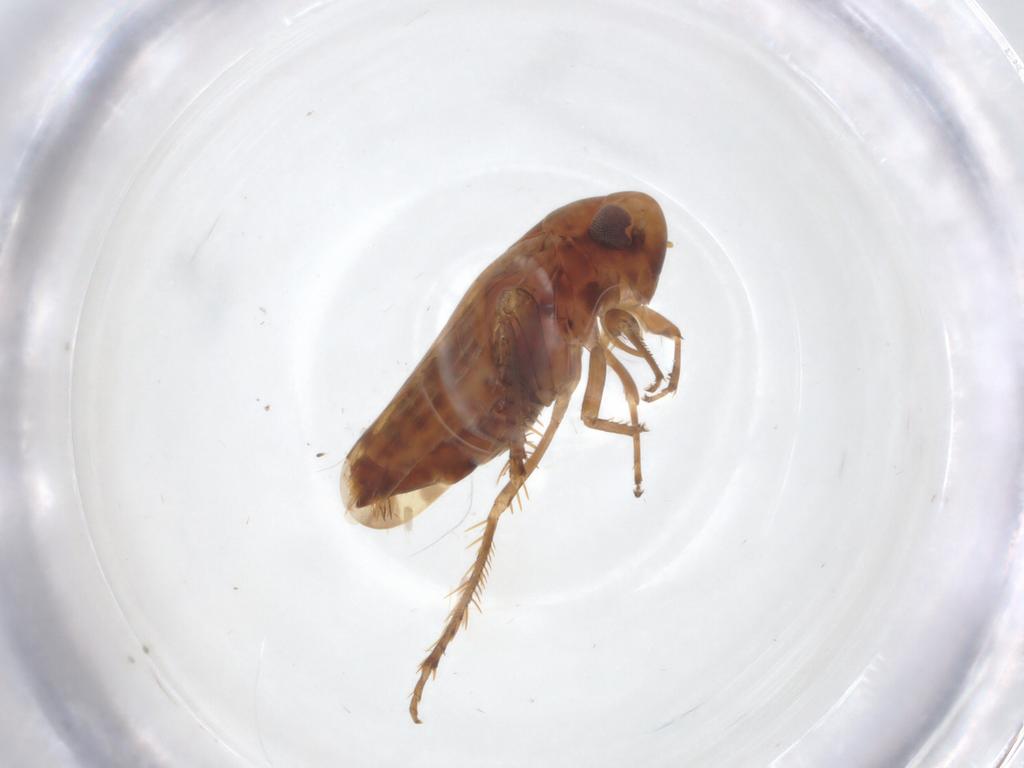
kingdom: Animalia
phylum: Arthropoda
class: Insecta
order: Hemiptera
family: Cicadellidae
